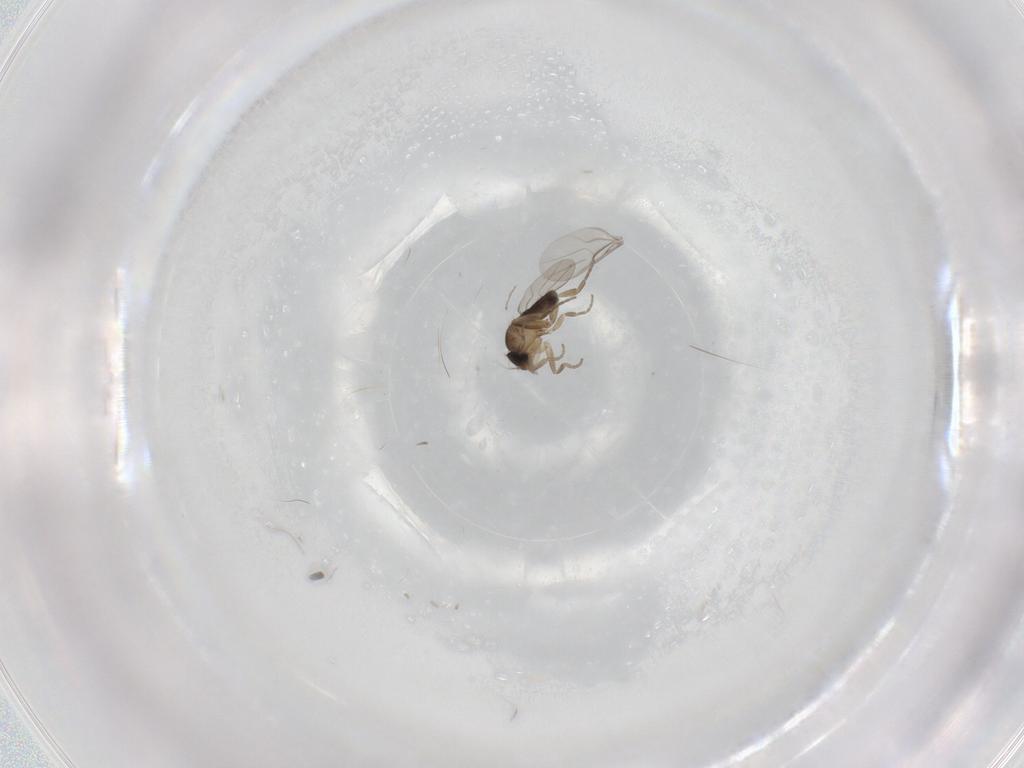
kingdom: Animalia
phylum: Arthropoda
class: Insecta
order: Diptera
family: Phoridae
